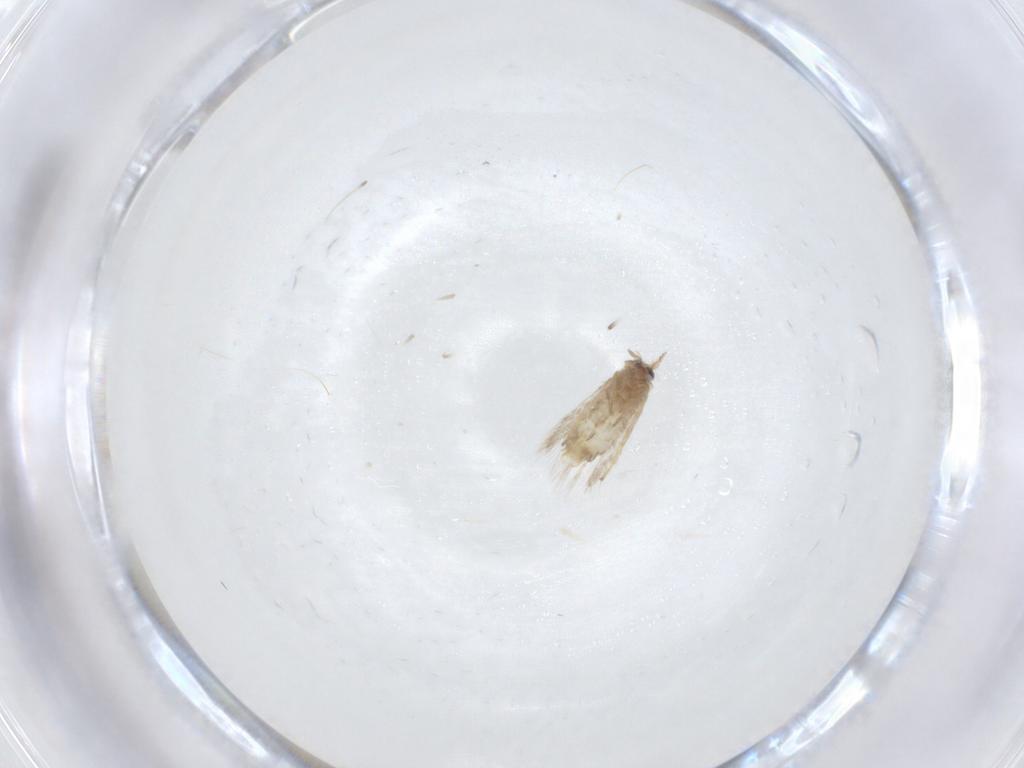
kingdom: Animalia
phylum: Arthropoda
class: Insecta
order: Lepidoptera
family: Nepticulidae
